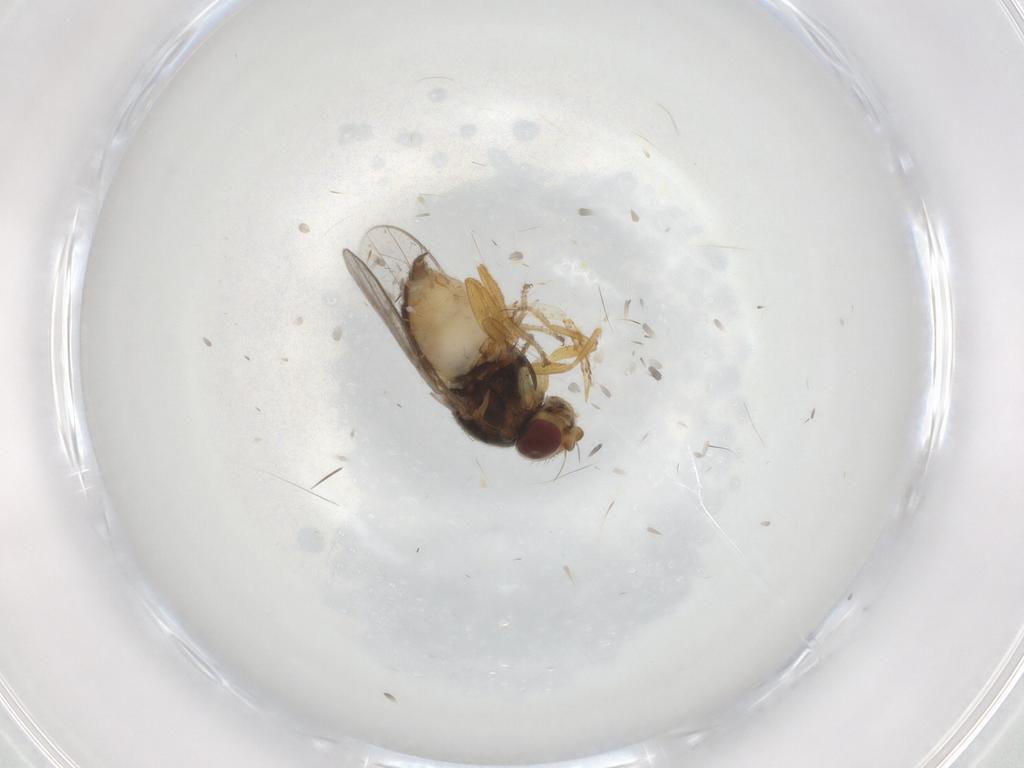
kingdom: Animalia
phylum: Arthropoda
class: Insecta
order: Diptera
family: Chloropidae
